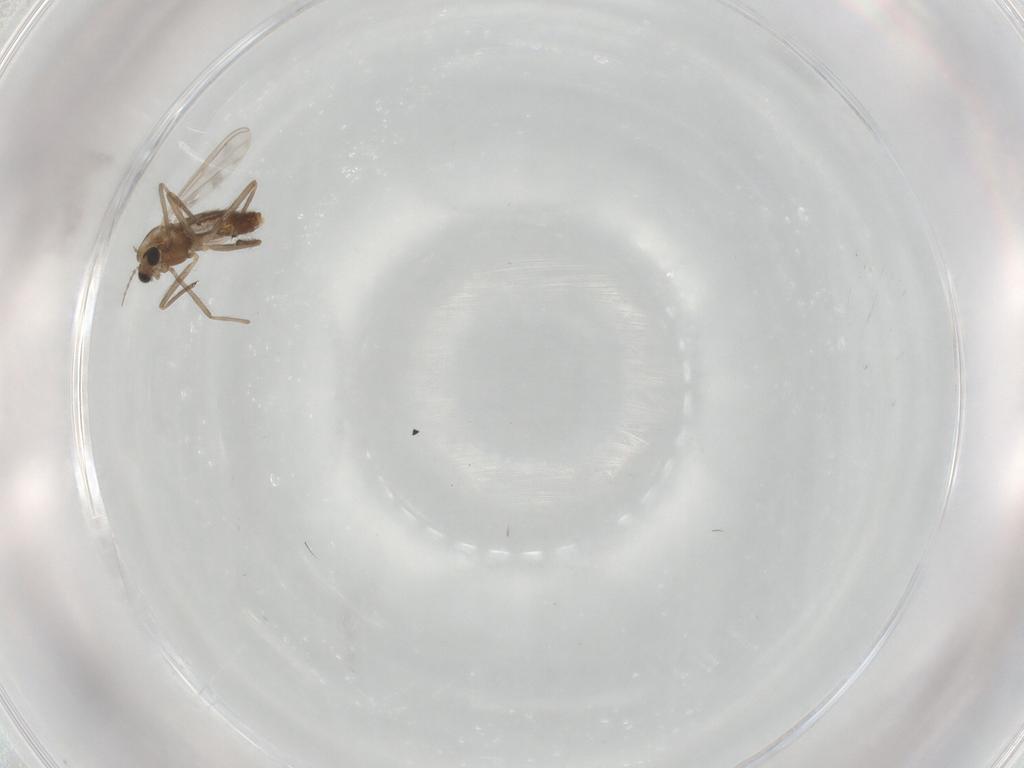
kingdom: Animalia
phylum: Arthropoda
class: Insecta
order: Diptera
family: Chironomidae
